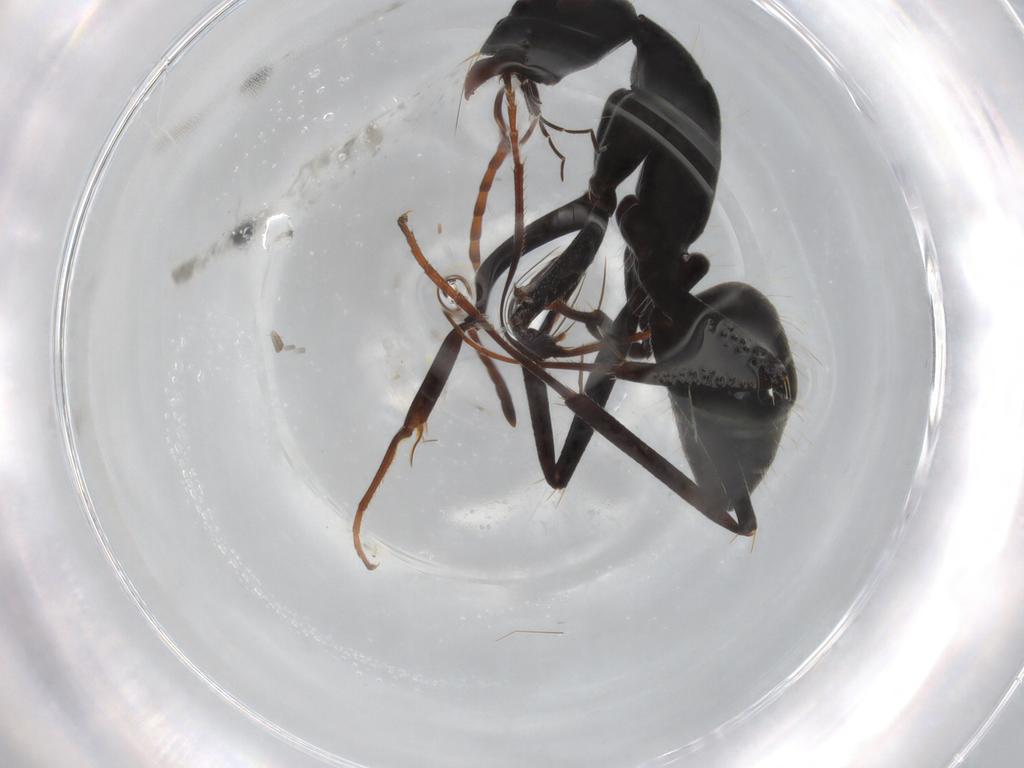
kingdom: Animalia
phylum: Arthropoda
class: Insecta
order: Hymenoptera
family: Formicidae
